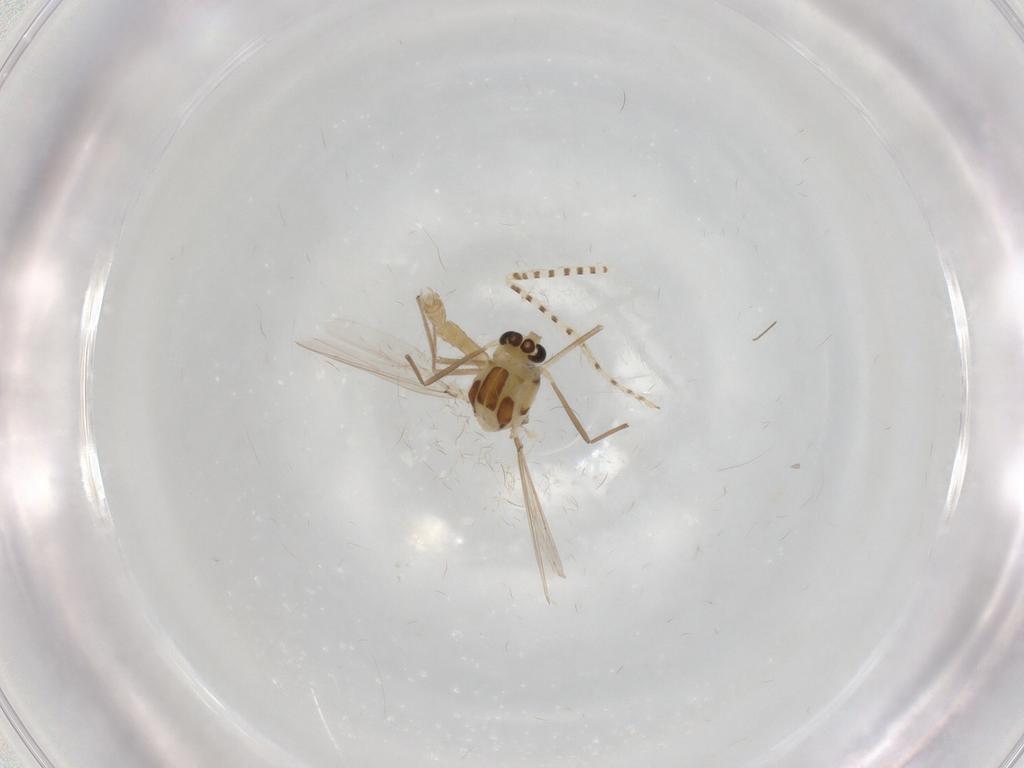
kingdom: Animalia
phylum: Arthropoda
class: Insecta
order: Diptera
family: Chironomidae
